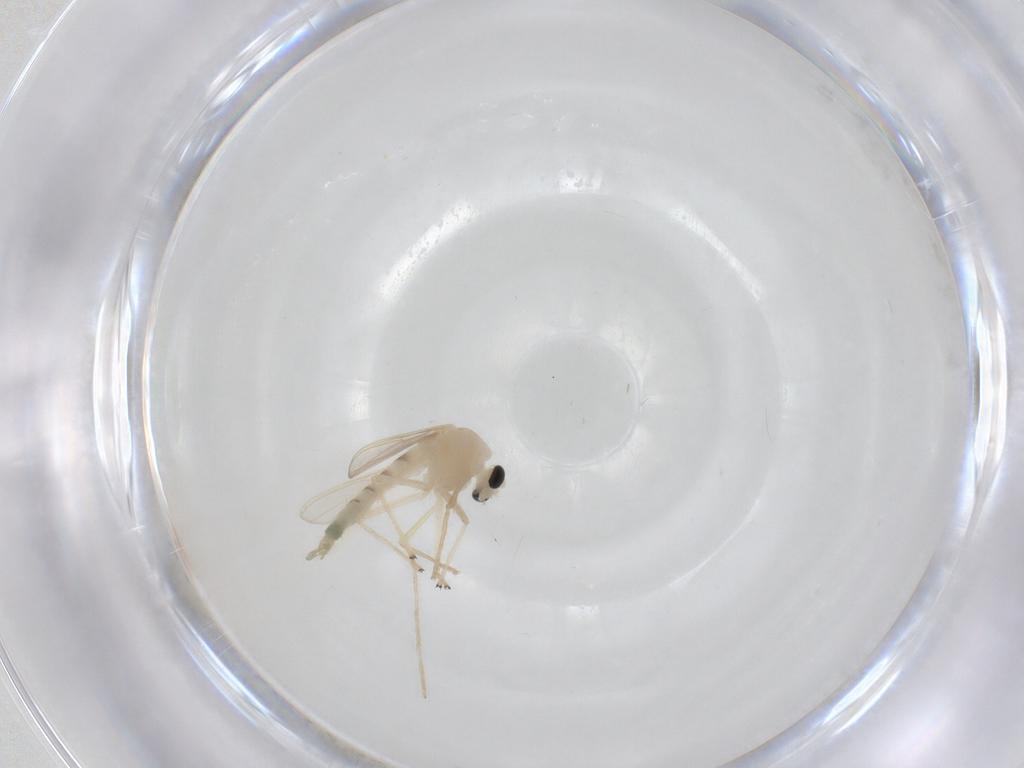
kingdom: Animalia
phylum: Arthropoda
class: Insecta
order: Diptera
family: Chironomidae
